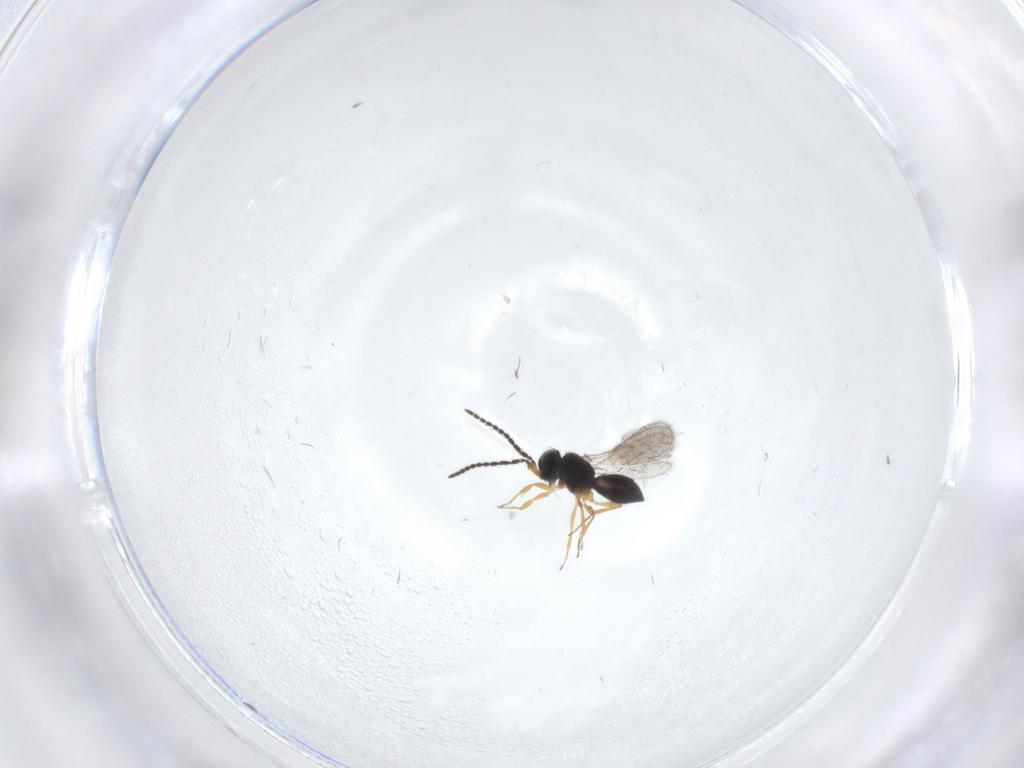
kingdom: Animalia
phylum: Arthropoda
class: Insecta
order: Hymenoptera
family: Scelionidae
